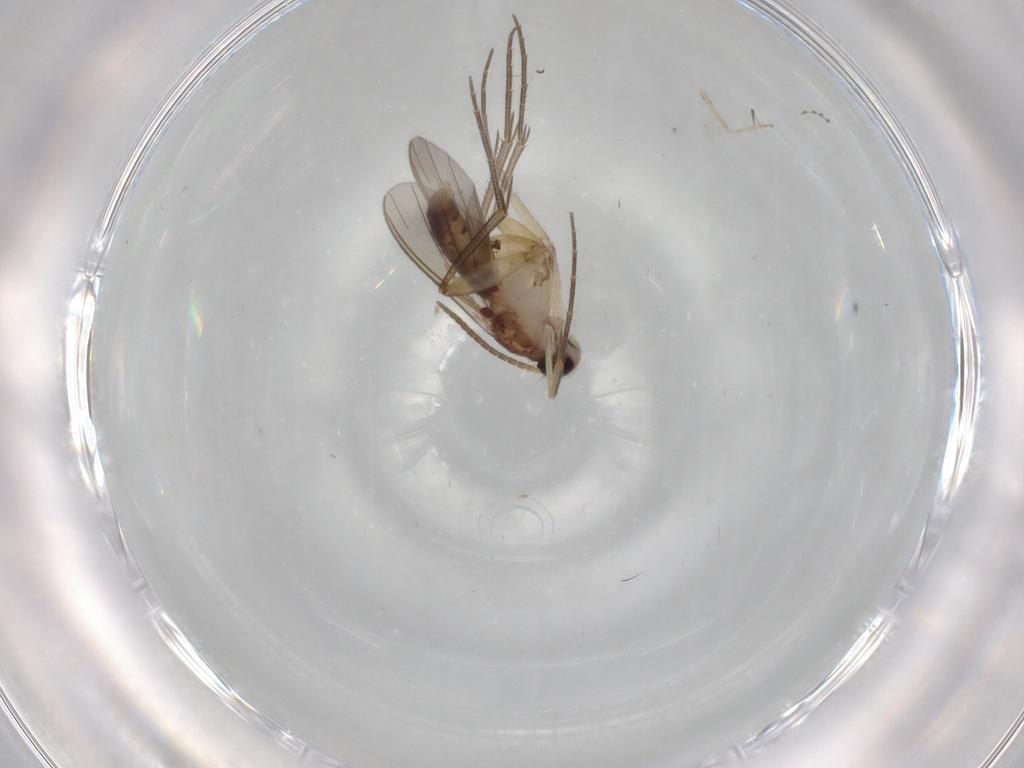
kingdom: Animalia
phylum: Arthropoda
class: Insecta
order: Diptera
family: Mycetophilidae
